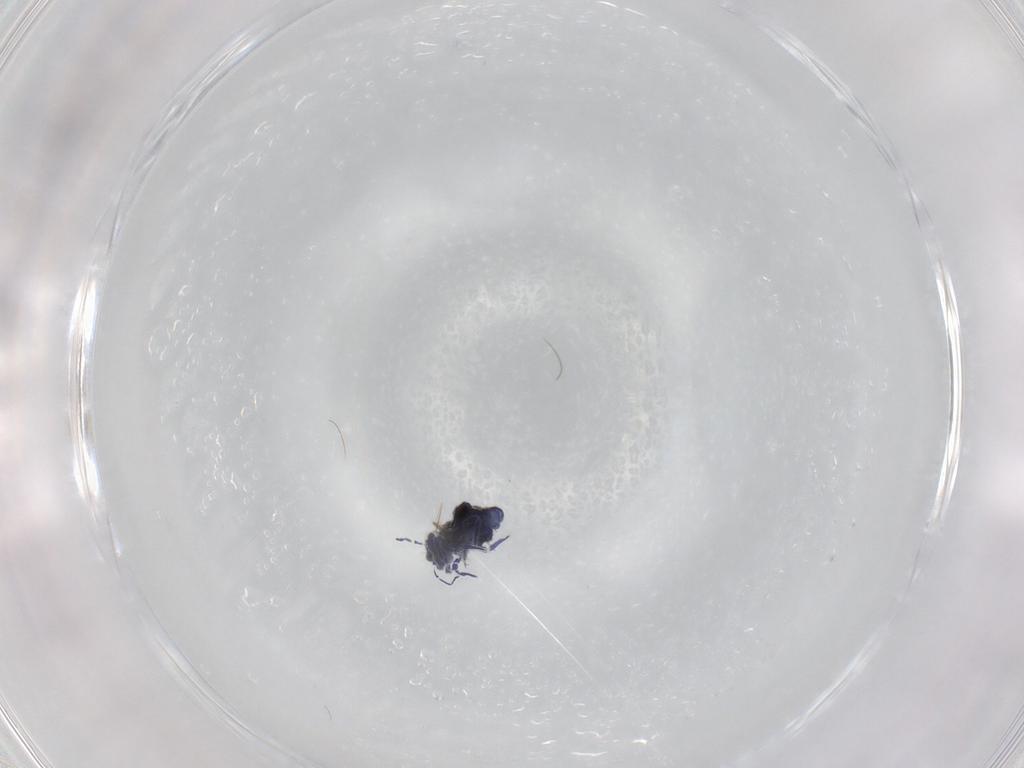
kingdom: Animalia
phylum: Arthropoda
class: Collembola
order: Symphypleona
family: Sminthurididae
